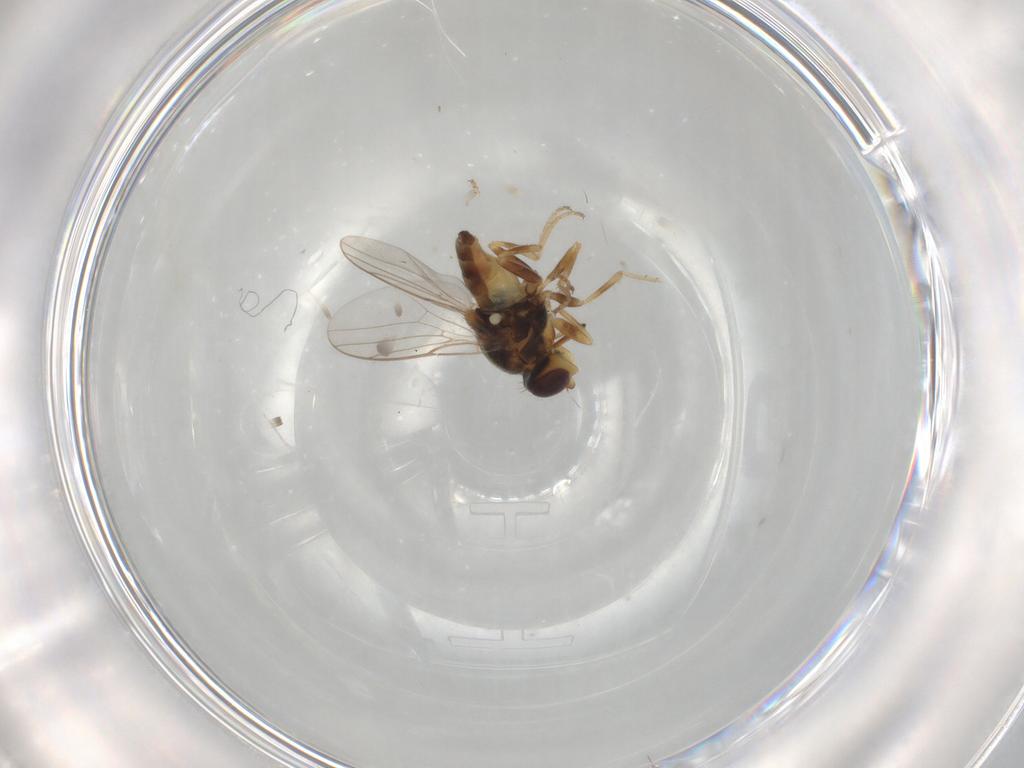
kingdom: Animalia
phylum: Arthropoda
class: Insecta
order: Diptera
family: Chloropidae
